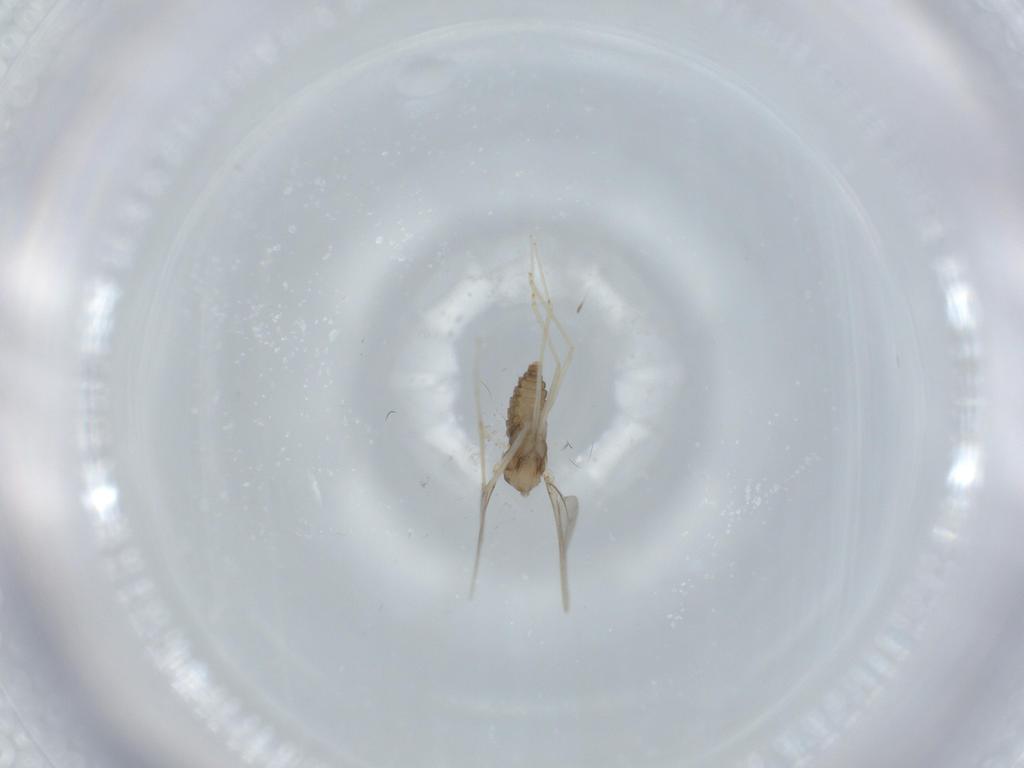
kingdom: Animalia
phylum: Arthropoda
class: Insecta
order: Diptera
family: Cecidomyiidae
